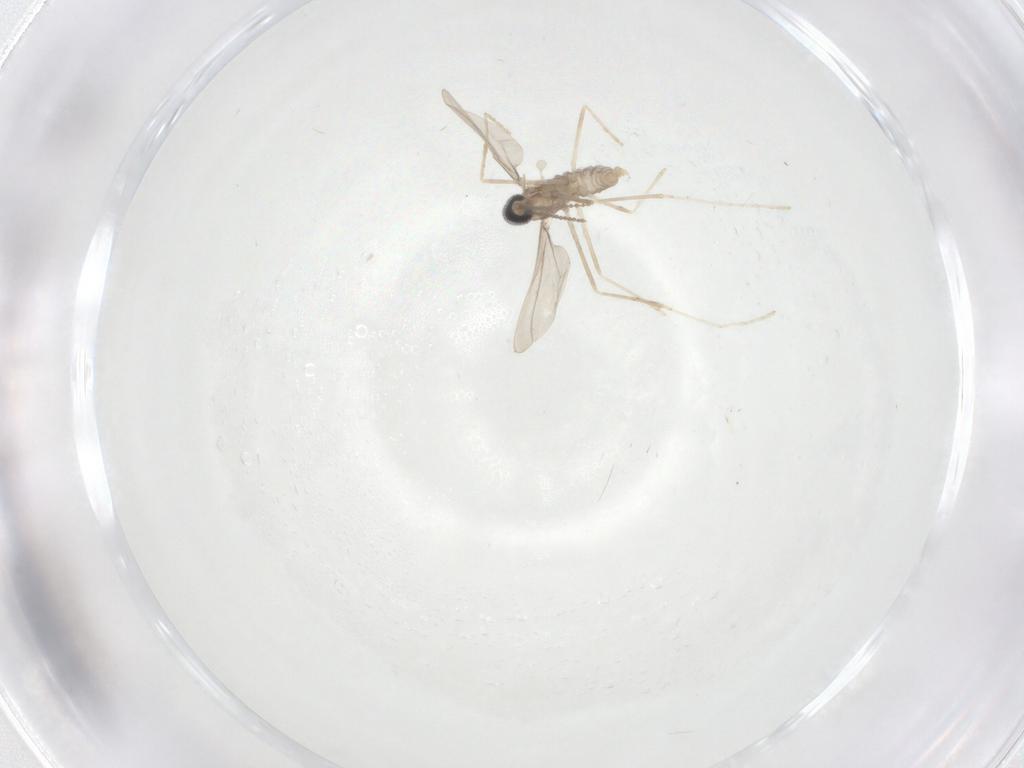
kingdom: Animalia
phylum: Arthropoda
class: Insecta
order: Diptera
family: Cecidomyiidae
